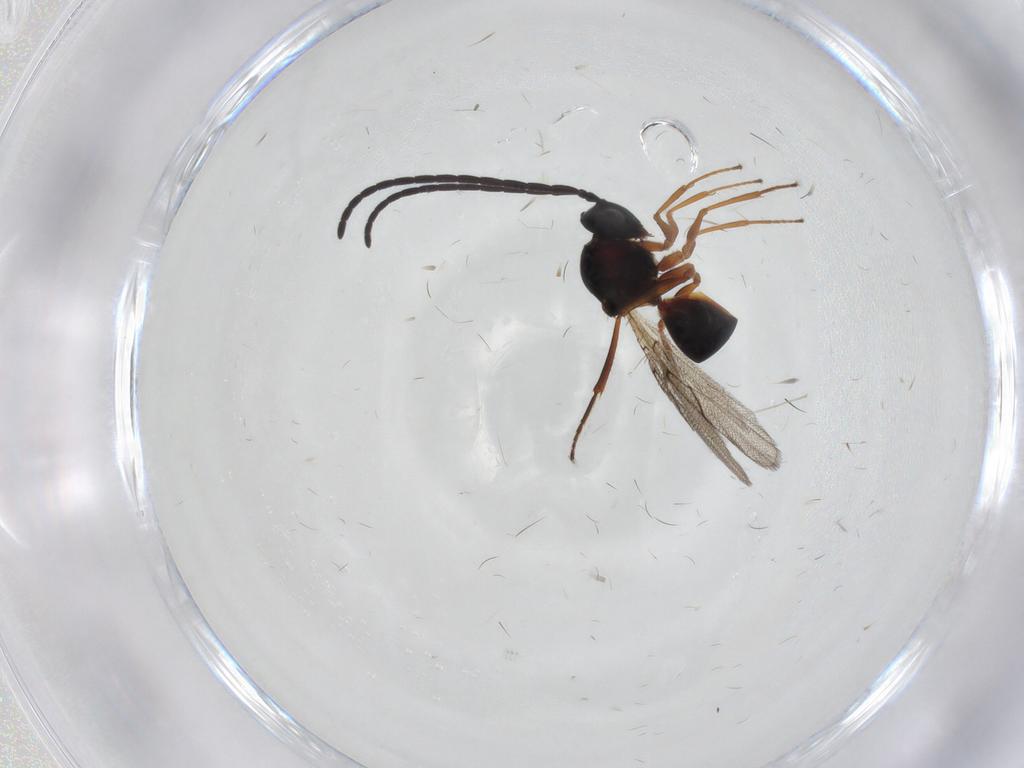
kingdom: Animalia
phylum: Arthropoda
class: Insecta
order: Hymenoptera
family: Figitidae
